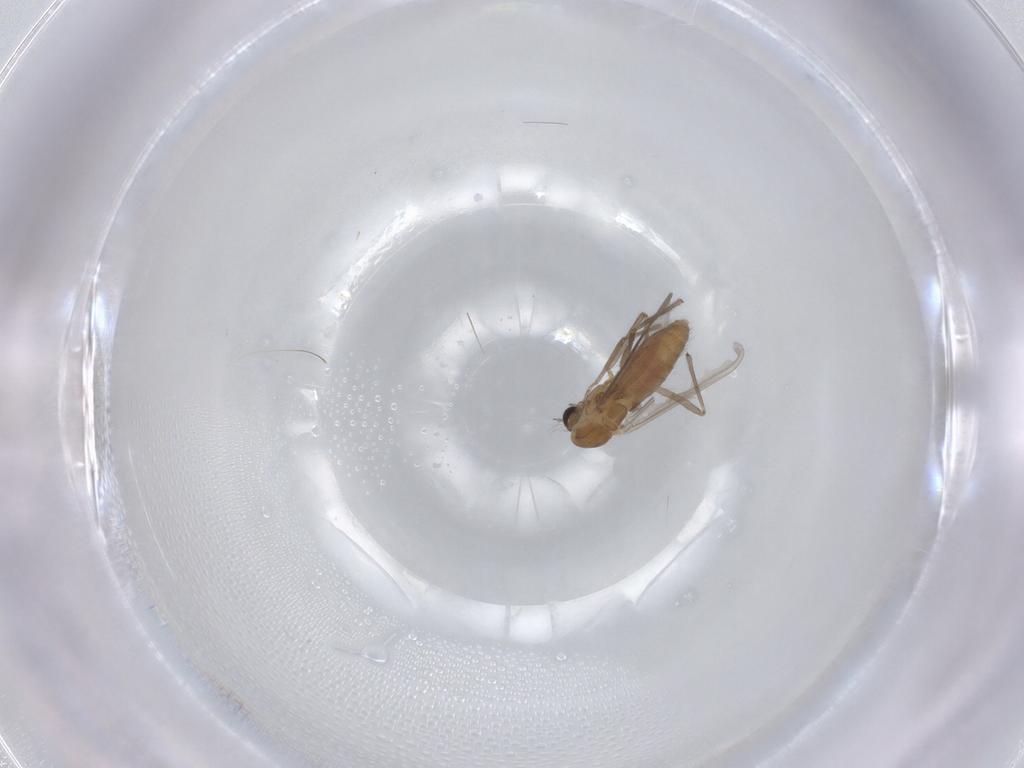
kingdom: Animalia
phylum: Arthropoda
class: Insecta
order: Diptera
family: Chironomidae
